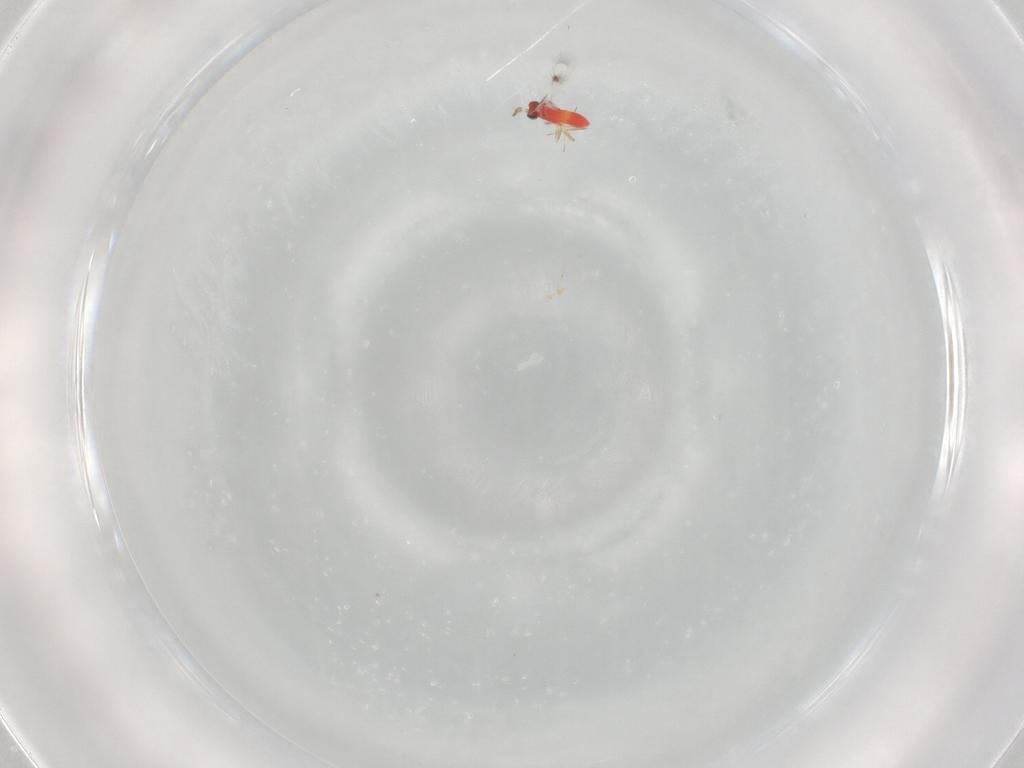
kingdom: Animalia
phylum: Arthropoda
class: Insecta
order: Hymenoptera
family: Trichogrammatidae
